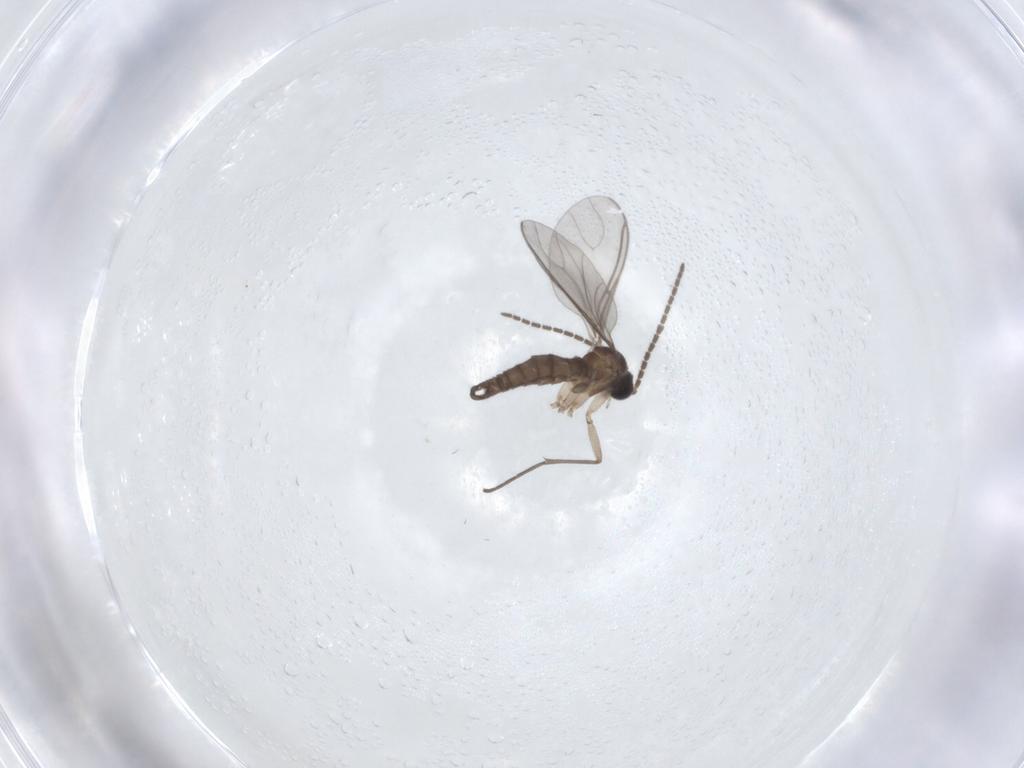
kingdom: Animalia
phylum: Arthropoda
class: Insecta
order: Diptera
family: Sciaridae
